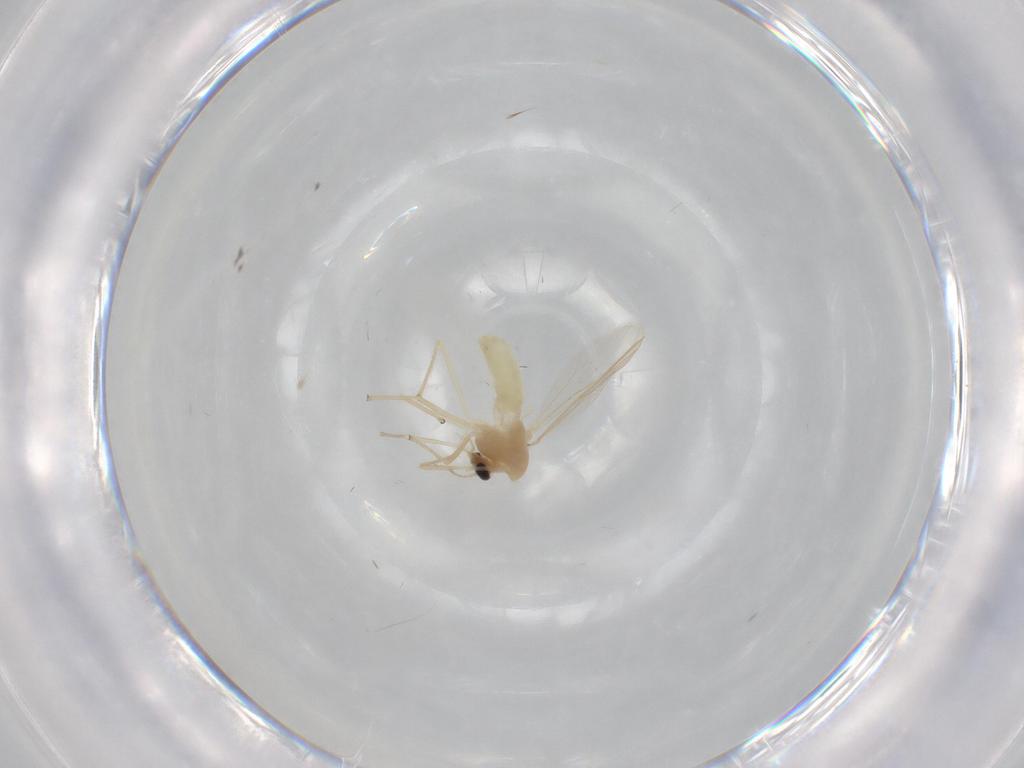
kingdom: Animalia
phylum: Arthropoda
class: Insecta
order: Diptera
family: Chironomidae
